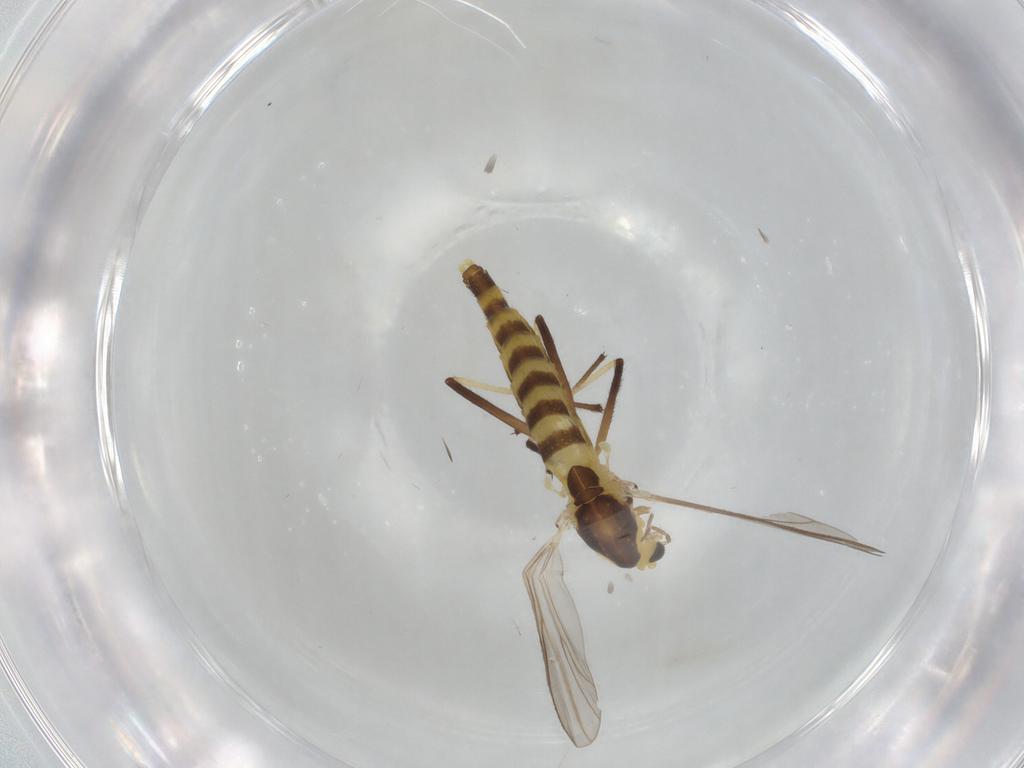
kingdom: Animalia
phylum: Arthropoda
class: Insecta
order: Diptera
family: Chironomidae
